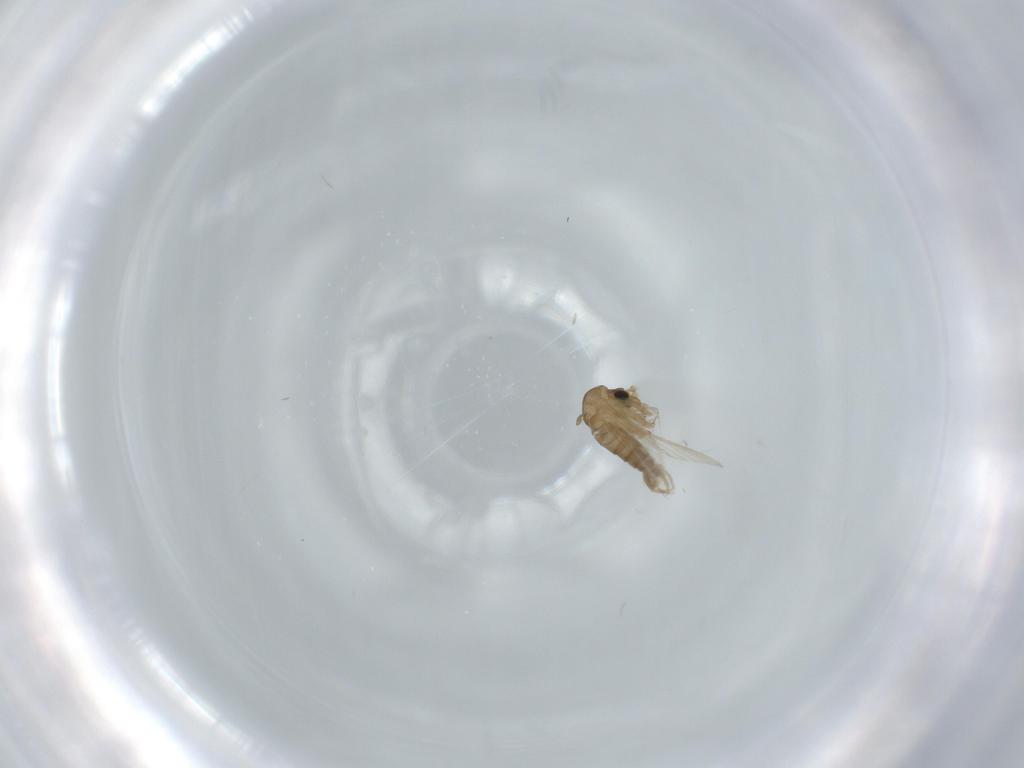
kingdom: Animalia
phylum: Arthropoda
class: Insecta
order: Diptera
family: Psychodidae
